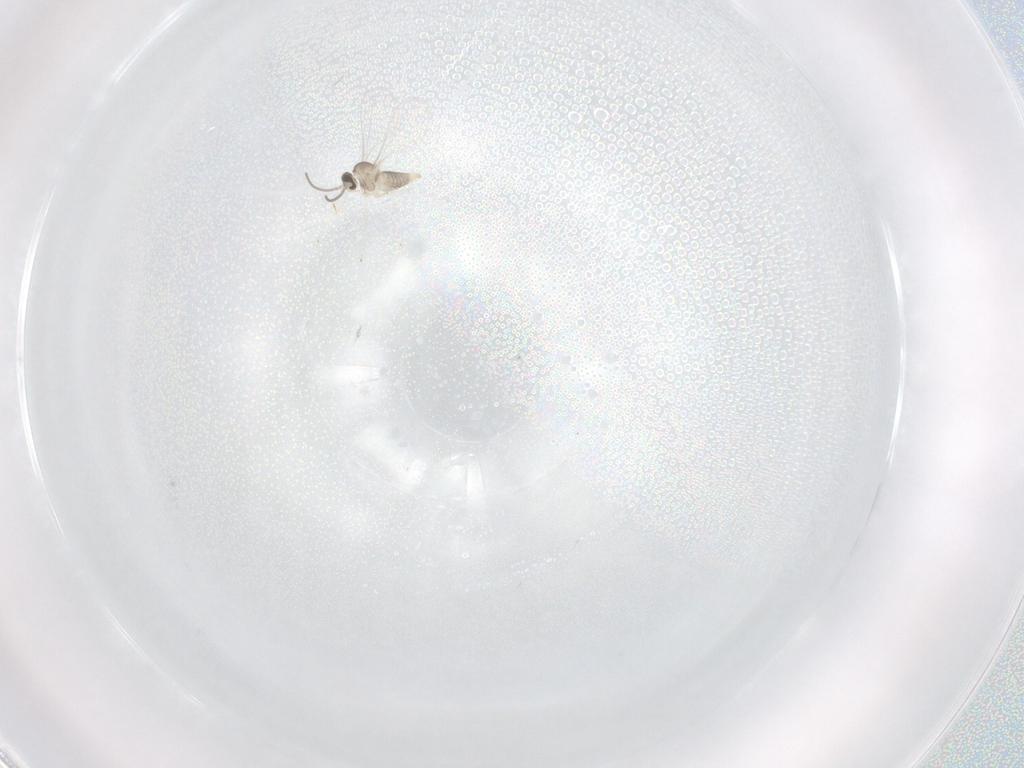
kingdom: Animalia
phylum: Arthropoda
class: Insecta
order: Diptera
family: Cecidomyiidae
